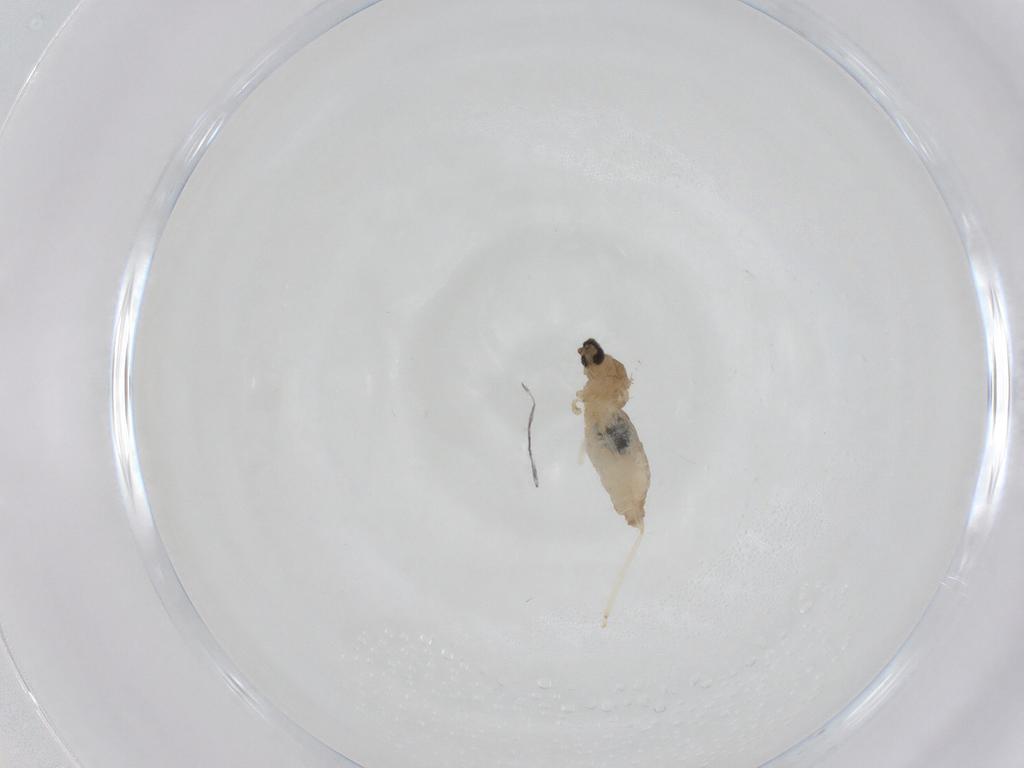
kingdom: Animalia
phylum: Arthropoda
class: Insecta
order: Diptera
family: Cecidomyiidae
